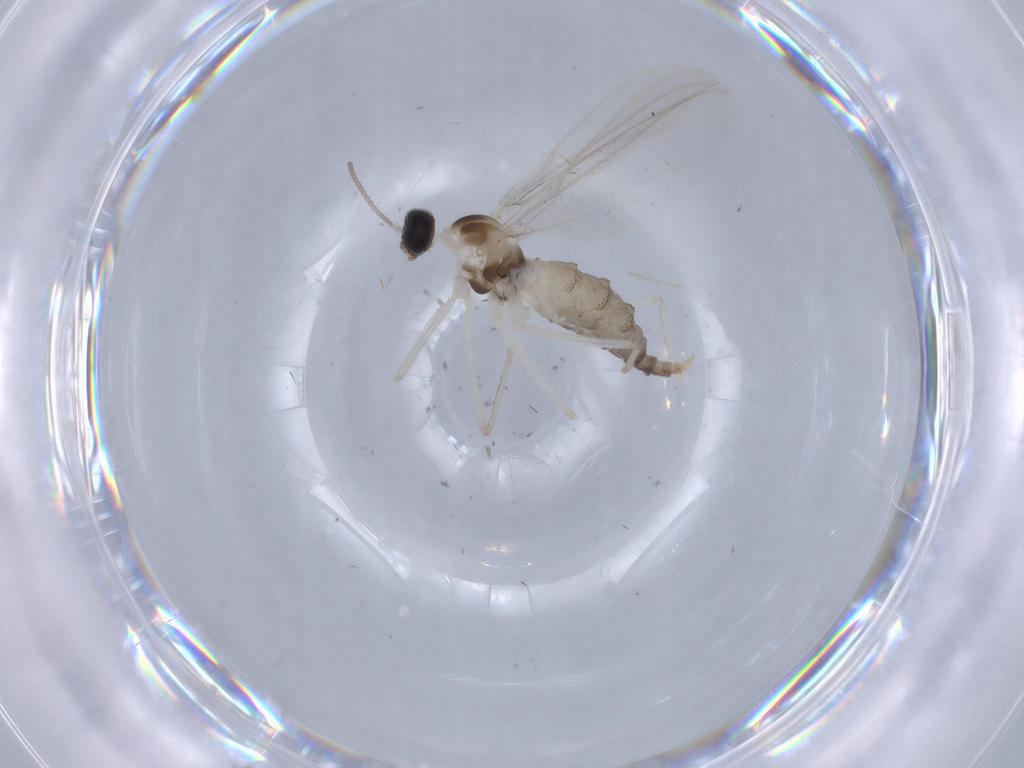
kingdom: Animalia
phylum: Arthropoda
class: Insecta
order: Diptera
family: Cecidomyiidae
